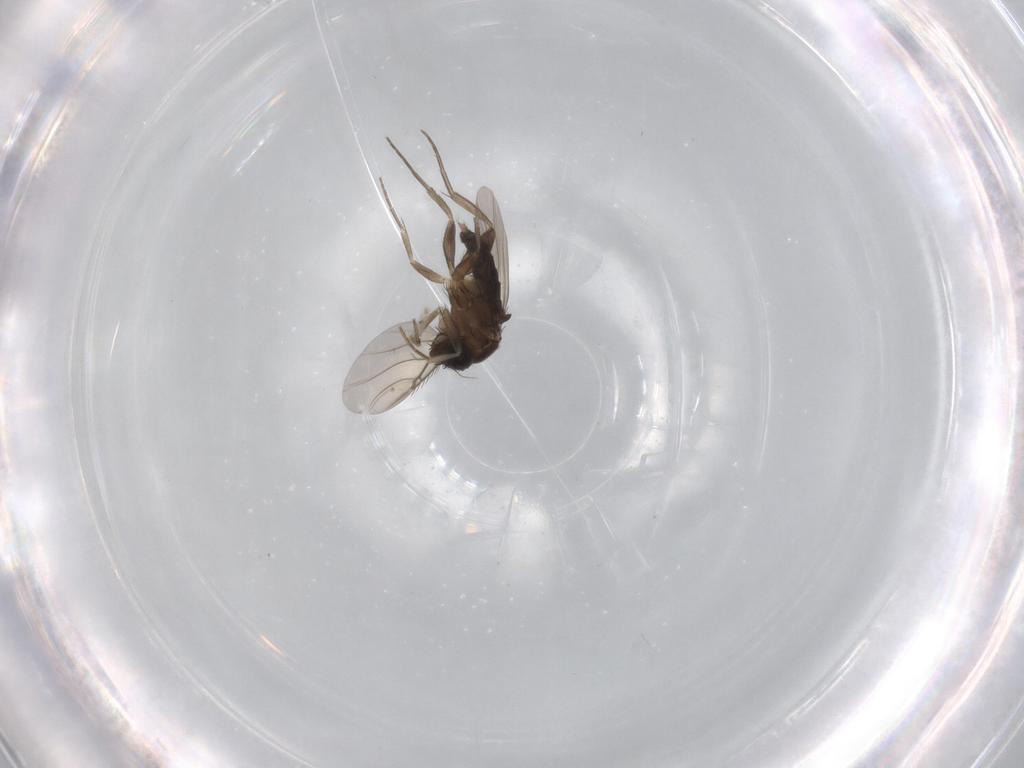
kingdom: Animalia
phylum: Arthropoda
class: Insecta
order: Diptera
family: Phoridae
